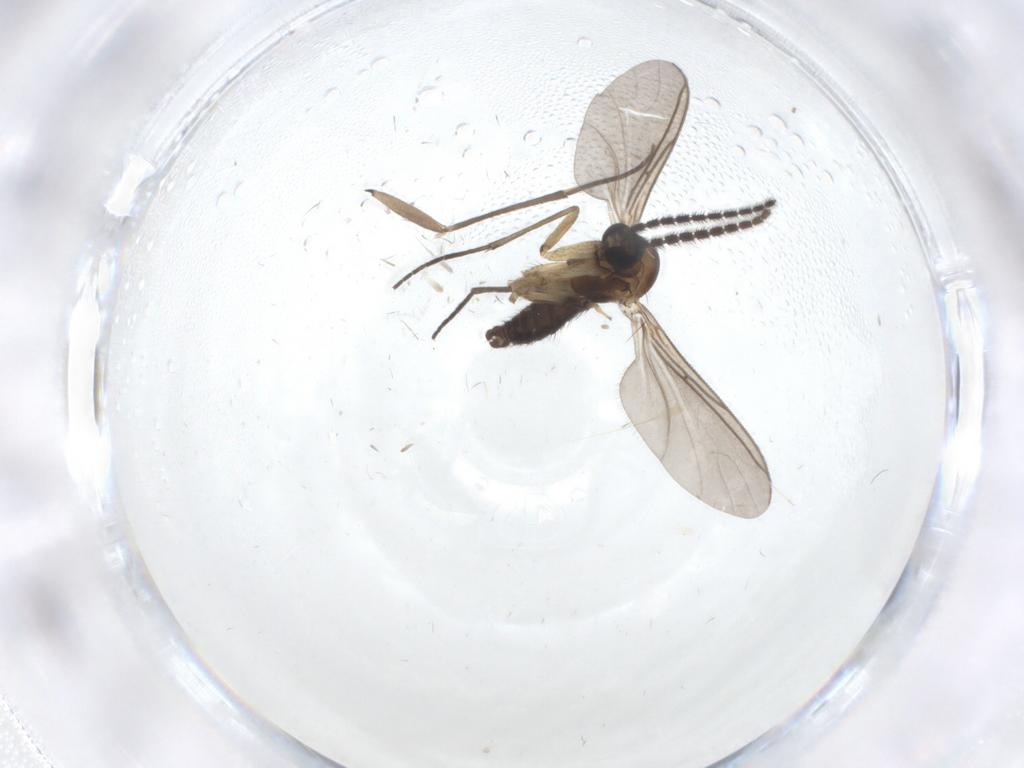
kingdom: Animalia
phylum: Arthropoda
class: Insecta
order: Diptera
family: Sciaridae
